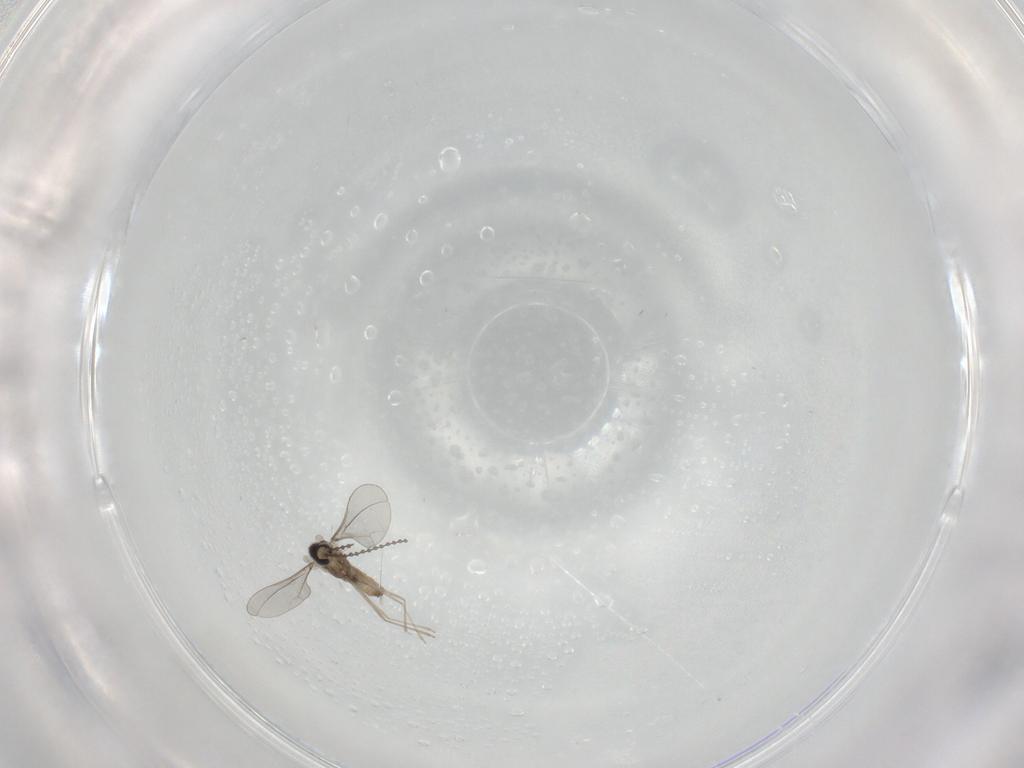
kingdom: Animalia
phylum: Arthropoda
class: Insecta
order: Diptera
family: Cecidomyiidae
